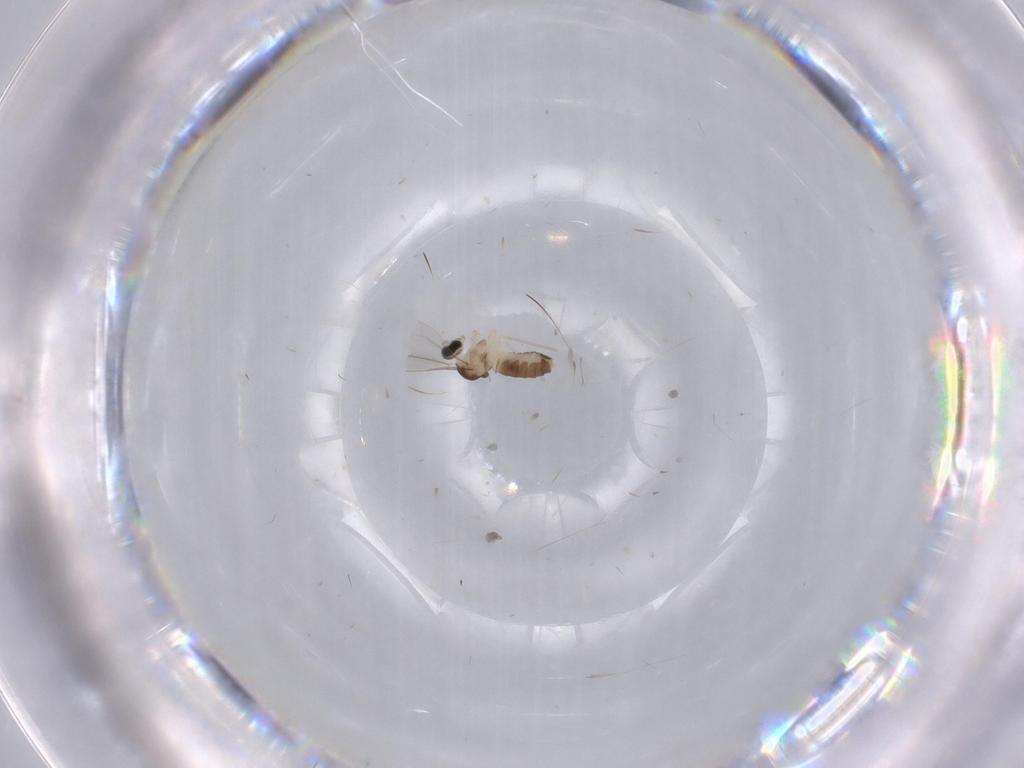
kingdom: Animalia
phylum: Arthropoda
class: Insecta
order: Diptera
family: Cecidomyiidae
